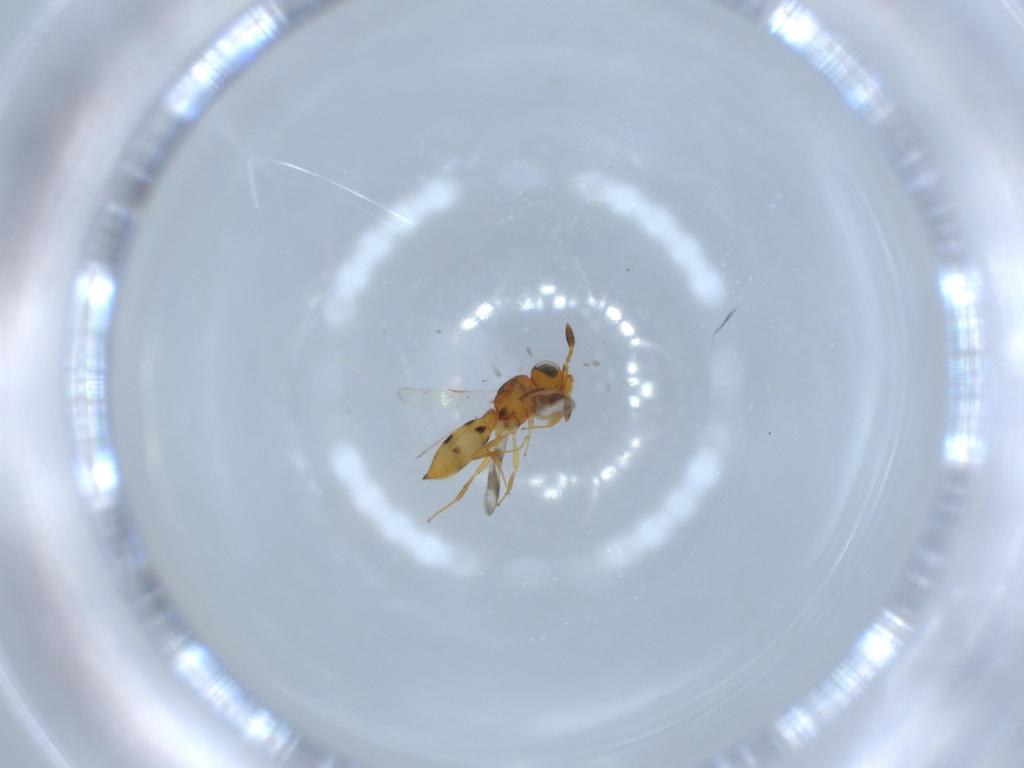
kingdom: Animalia
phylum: Arthropoda
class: Insecta
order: Hymenoptera
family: Scelionidae
